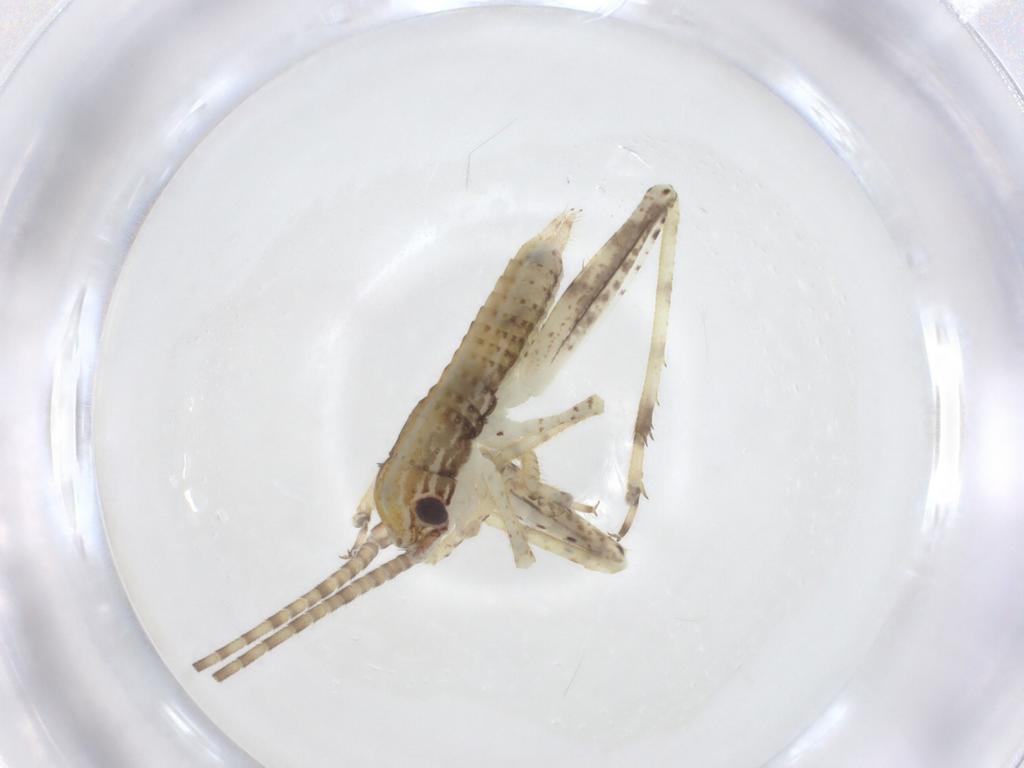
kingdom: Animalia
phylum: Arthropoda
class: Insecta
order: Orthoptera
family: Gryllidae
